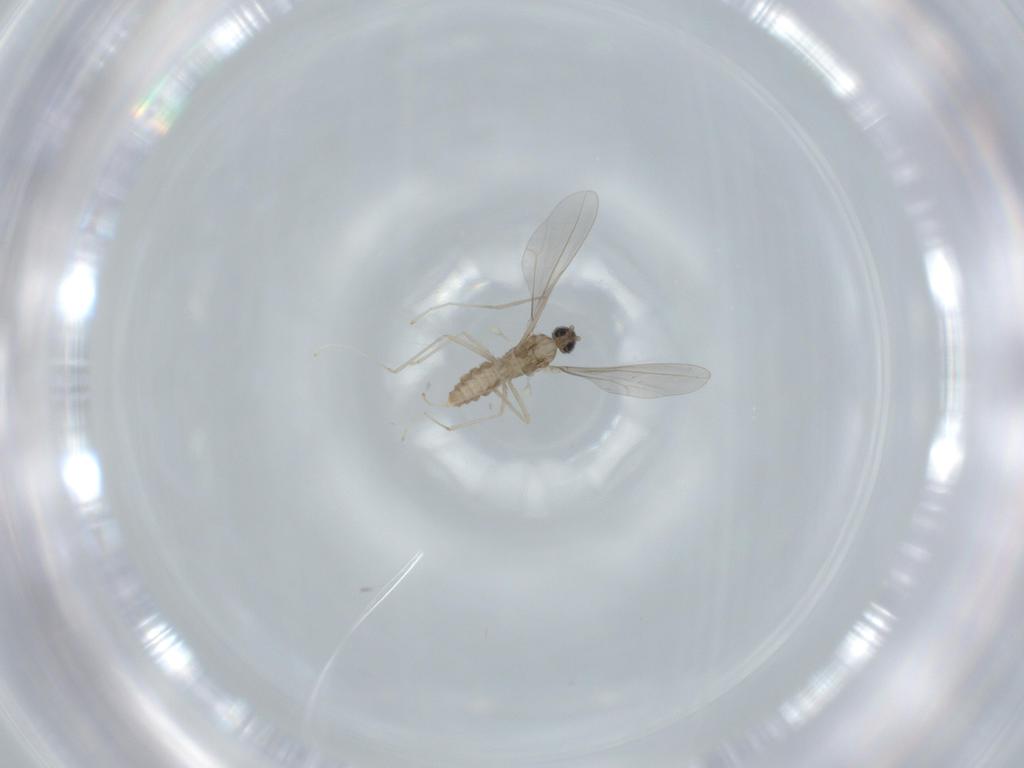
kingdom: Animalia
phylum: Arthropoda
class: Insecta
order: Diptera
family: Cecidomyiidae
